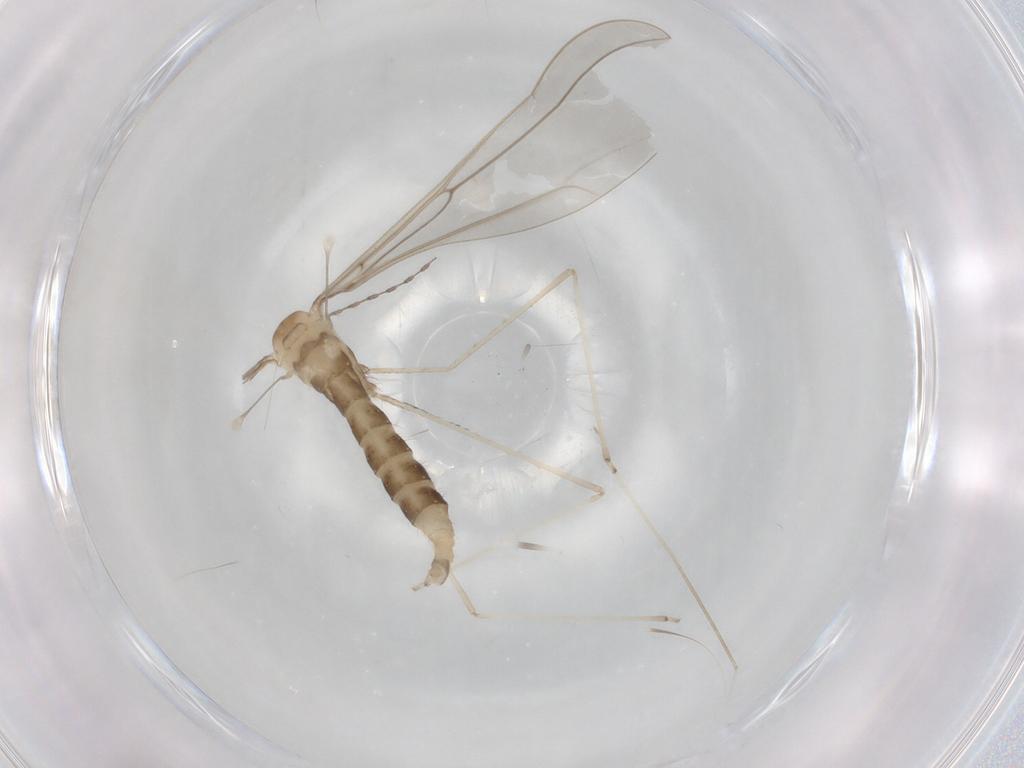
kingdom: Animalia
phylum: Arthropoda
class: Insecta
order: Diptera
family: Cecidomyiidae
